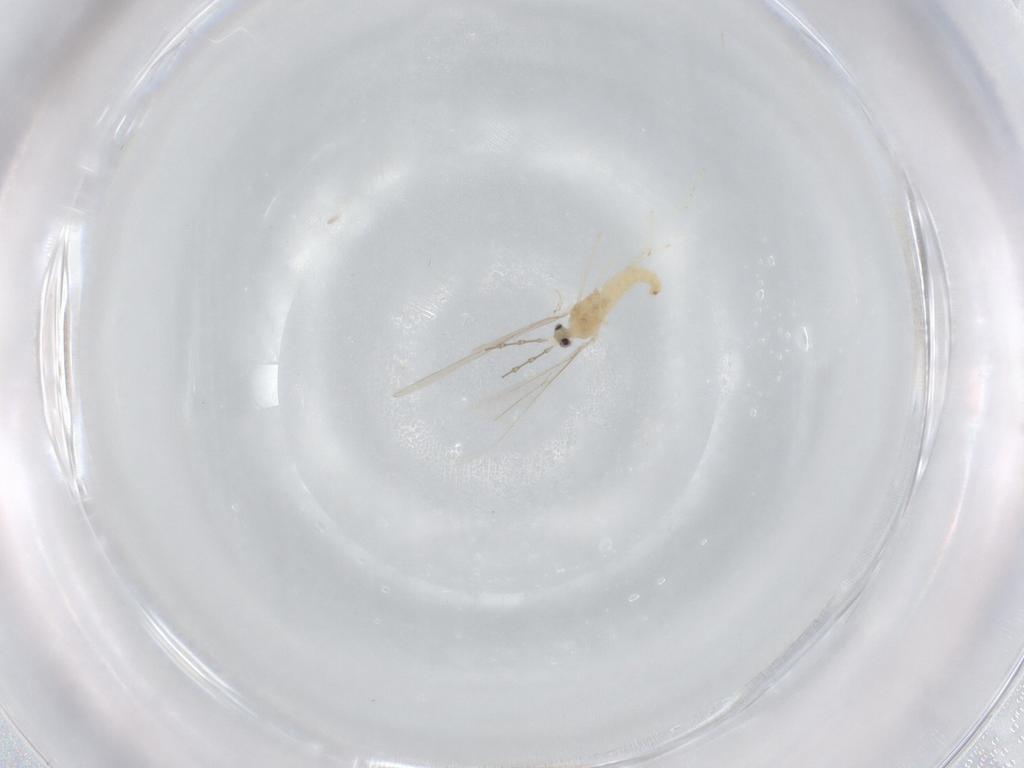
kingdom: Animalia
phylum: Arthropoda
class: Insecta
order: Diptera
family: Cecidomyiidae
